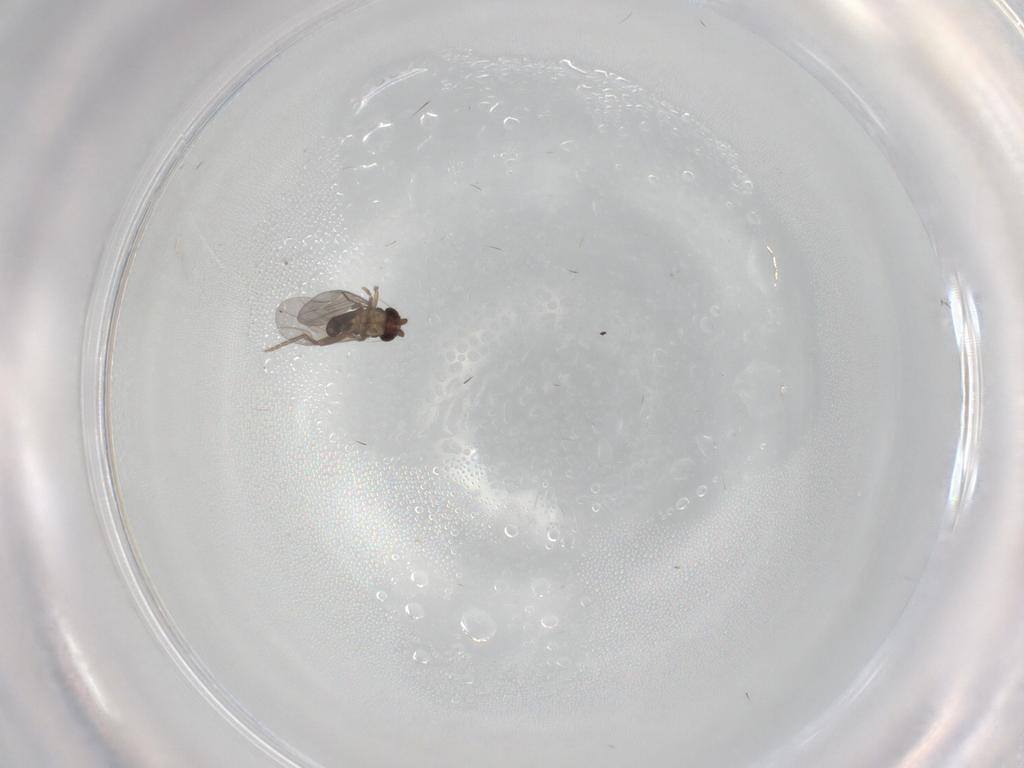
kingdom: Animalia
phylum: Arthropoda
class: Insecta
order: Diptera
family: Phoridae
